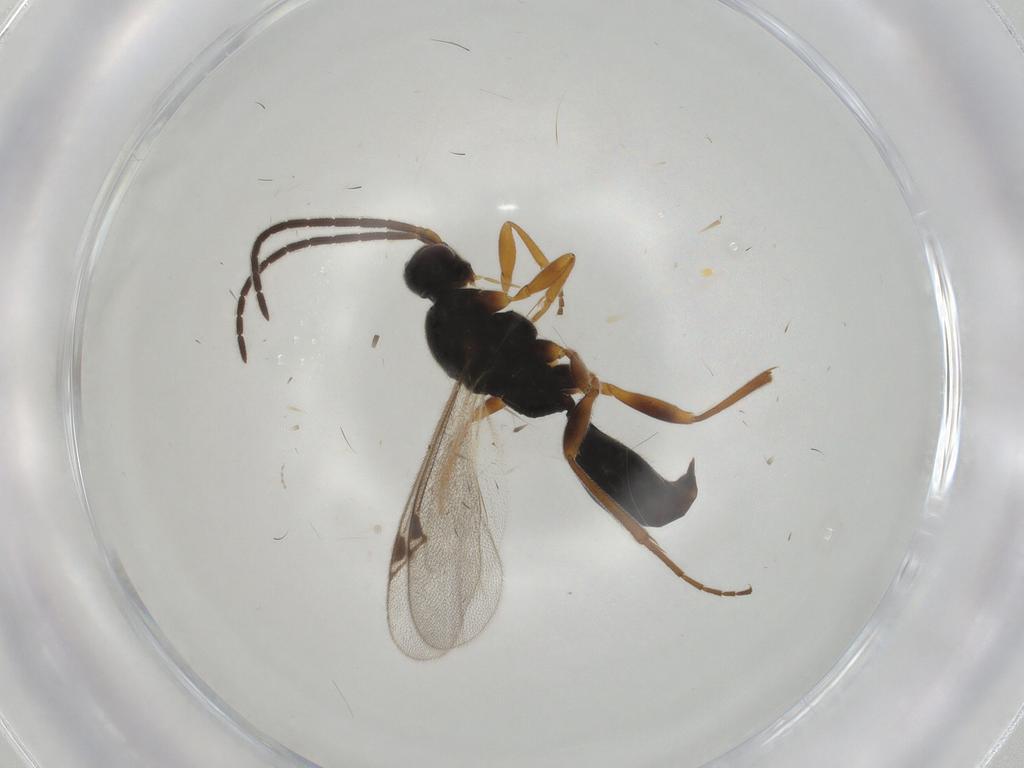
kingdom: Animalia
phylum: Arthropoda
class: Insecta
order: Hymenoptera
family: Proctotrupidae
